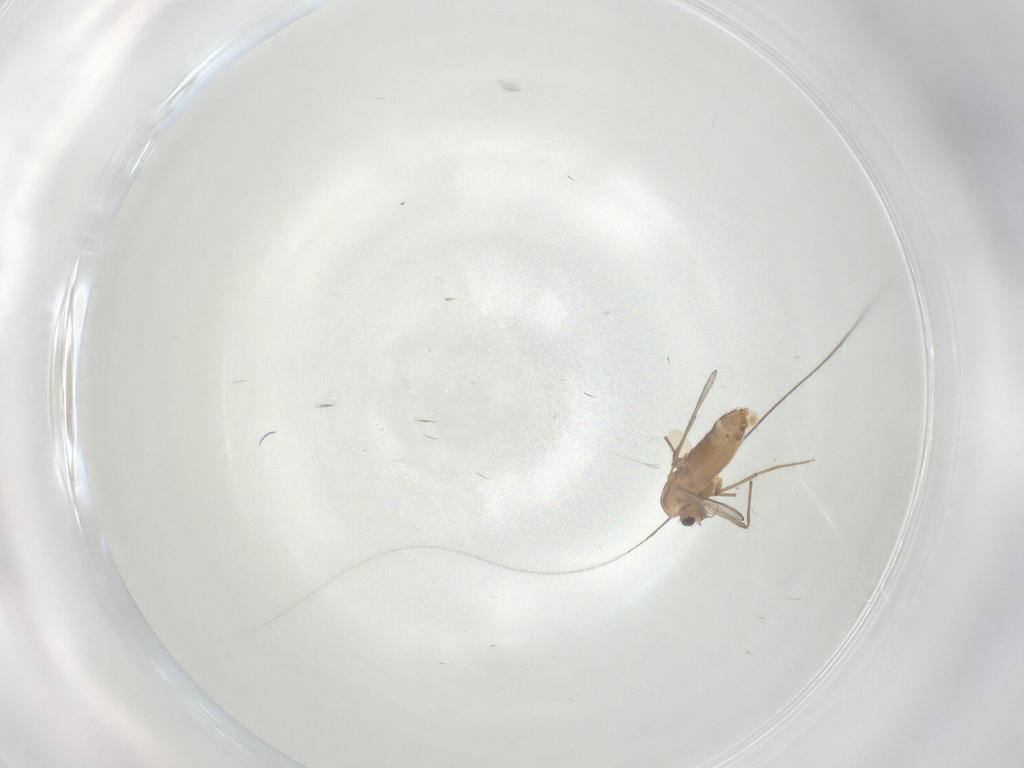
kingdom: Animalia
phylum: Arthropoda
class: Insecta
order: Diptera
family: Chironomidae
